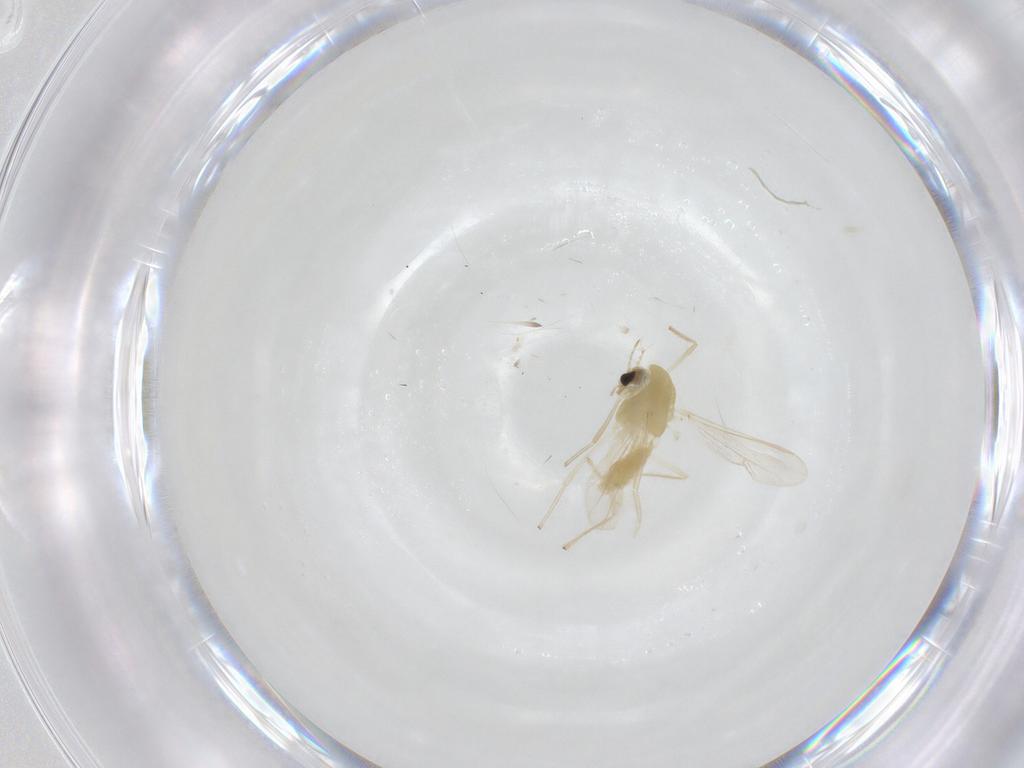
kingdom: Animalia
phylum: Arthropoda
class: Insecta
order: Diptera
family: Chironomidae
